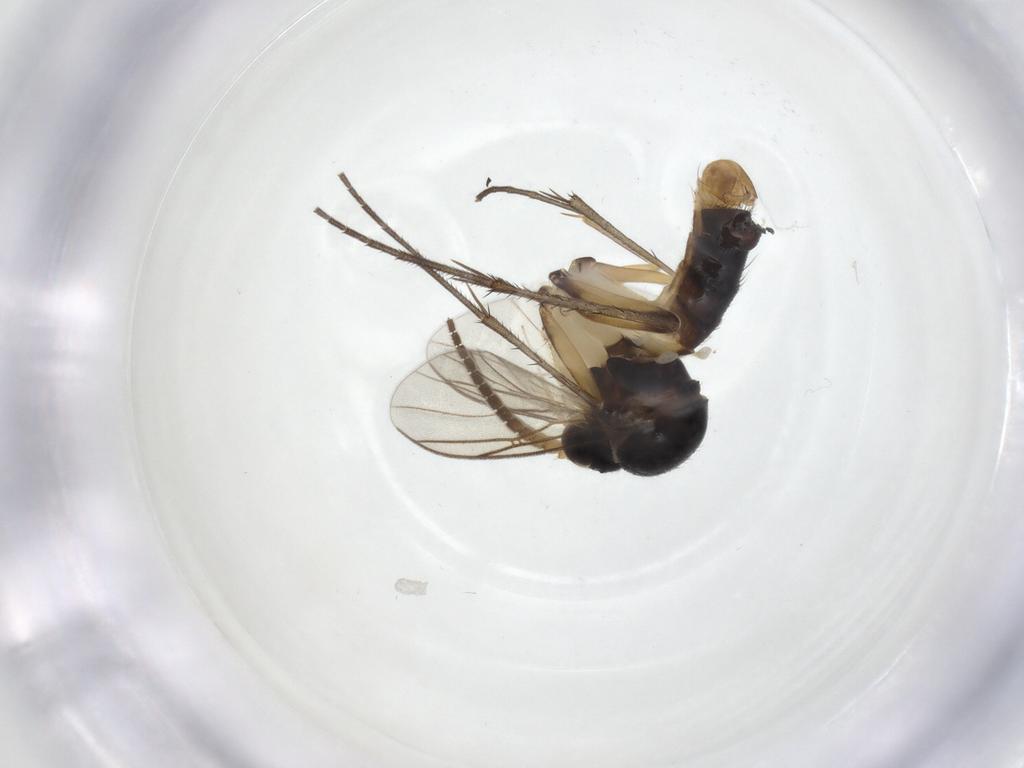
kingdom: Animalia
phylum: Arthropoda
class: Insecta
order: Diptera
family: Mycetophilidae
